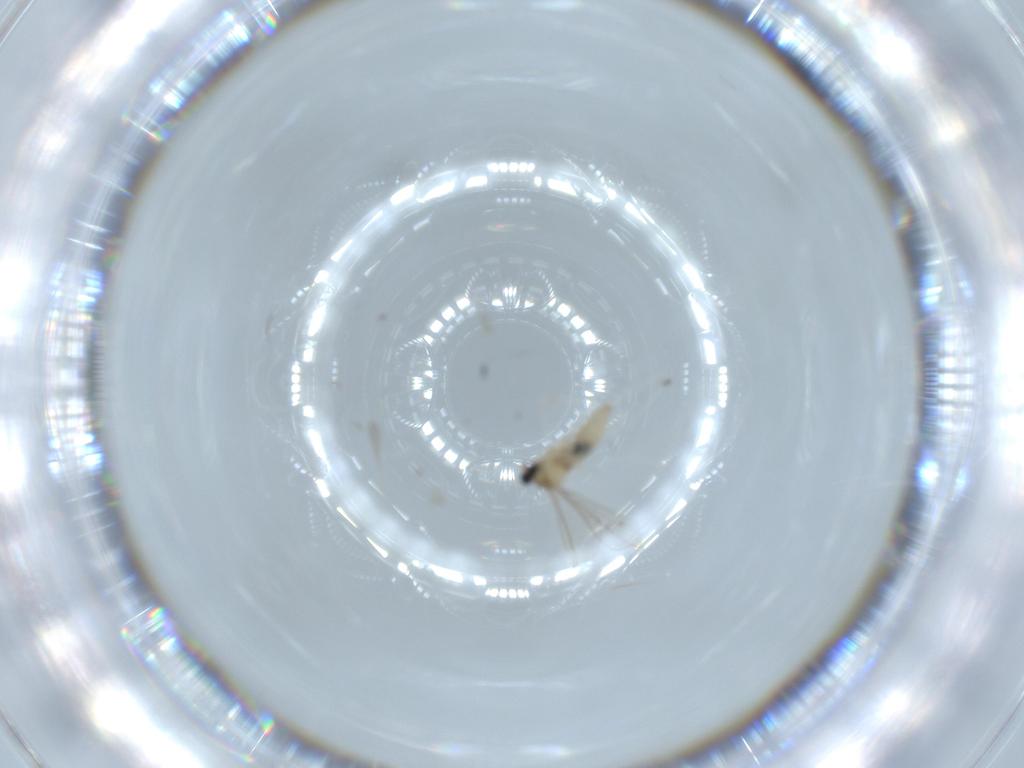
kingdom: Animalia
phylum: Arthropoda
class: Insecta
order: Diptera
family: Cecidomyiidae
